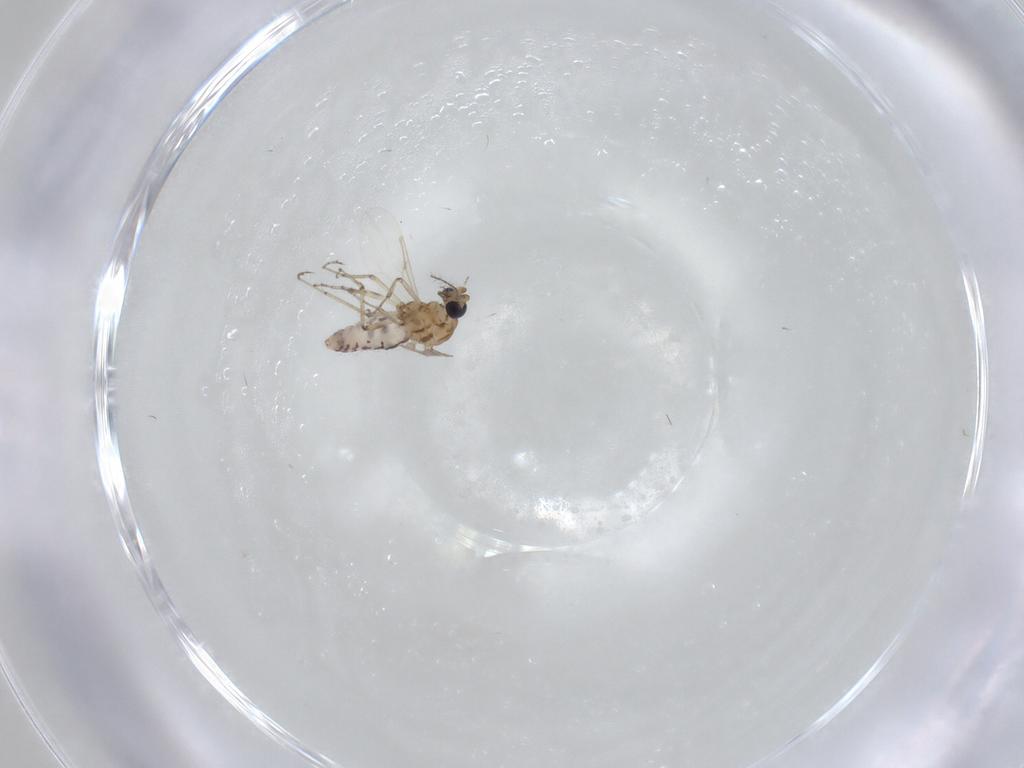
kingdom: Animalia
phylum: Arthropoda
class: Insecta
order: Diptera
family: Ceratopogonidae
